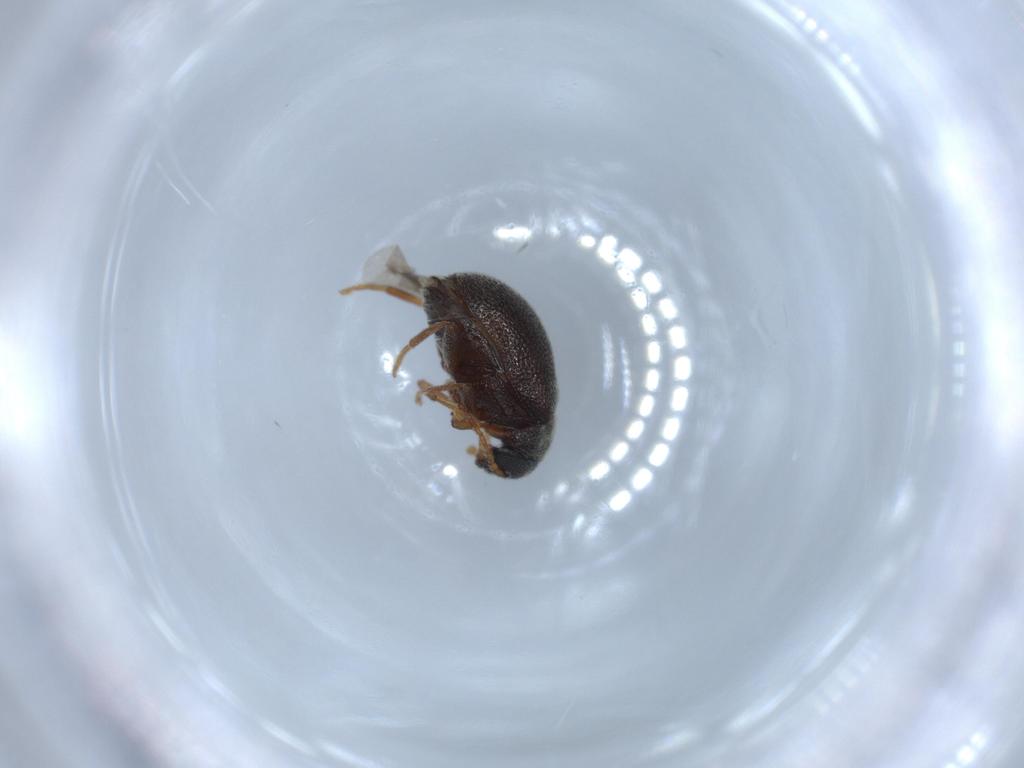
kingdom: Animalia
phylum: Arthropoda
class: Insecta
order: Coleoptera
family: Aderidae
